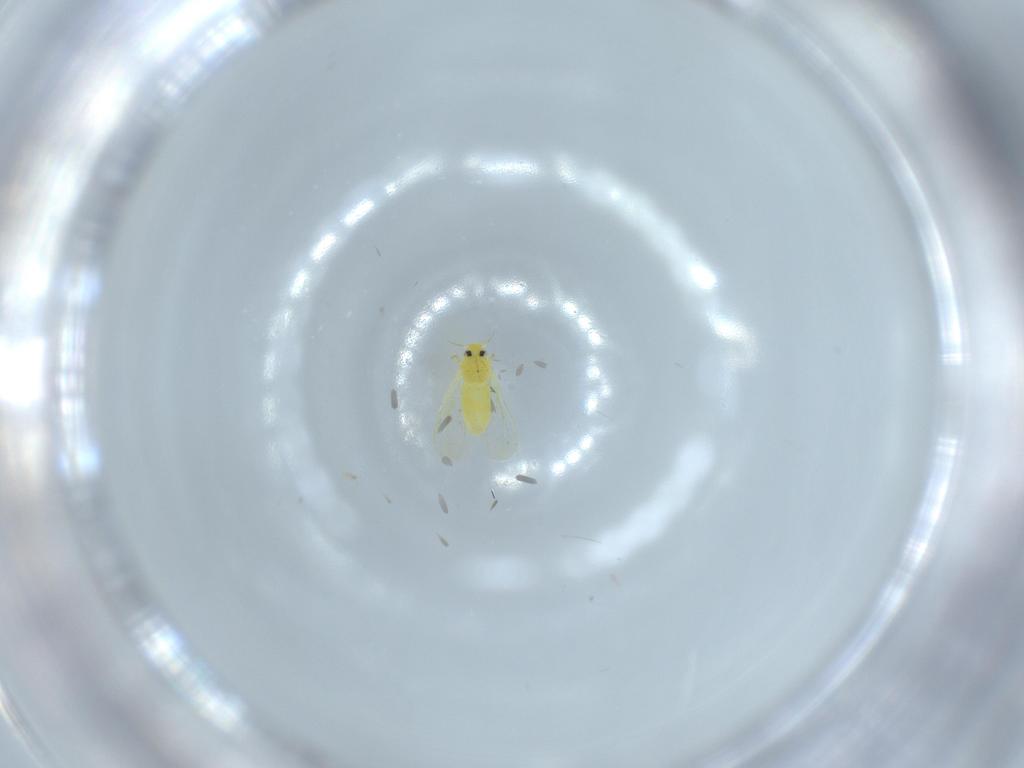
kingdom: Animalia
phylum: Arthropoda
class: Insecta
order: Hemiptera
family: Aleyrodidae
